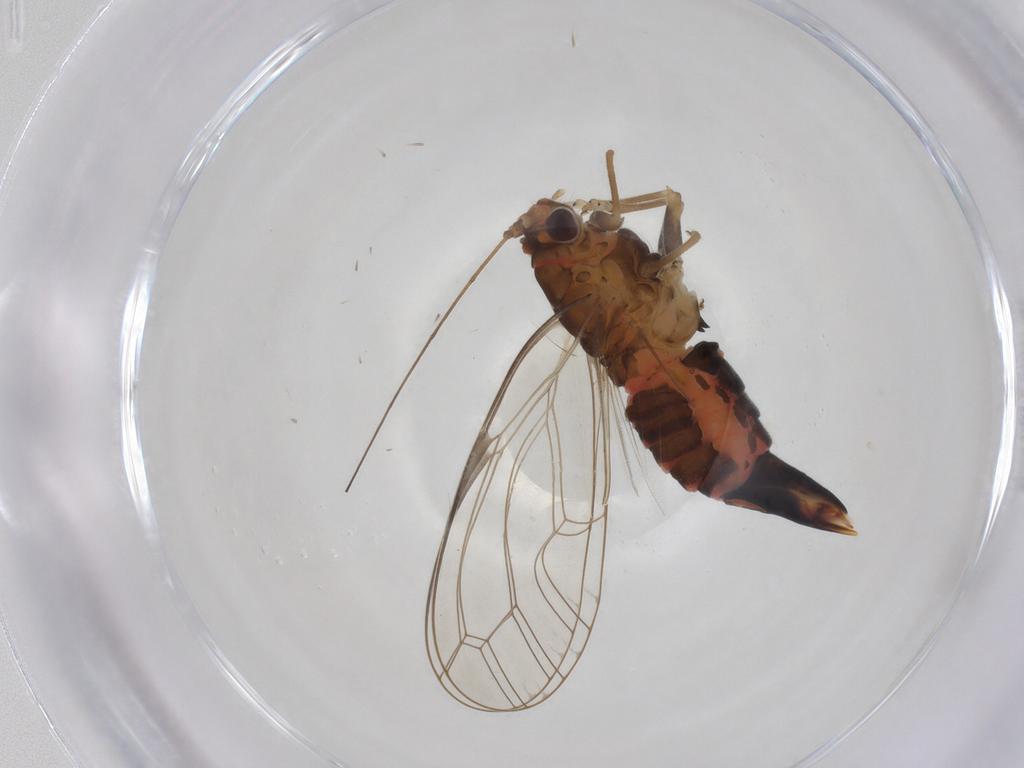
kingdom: Animalia
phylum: Arthropoda
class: Insecta
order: Hemiptera
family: Psylloidea_incertae_sedis
